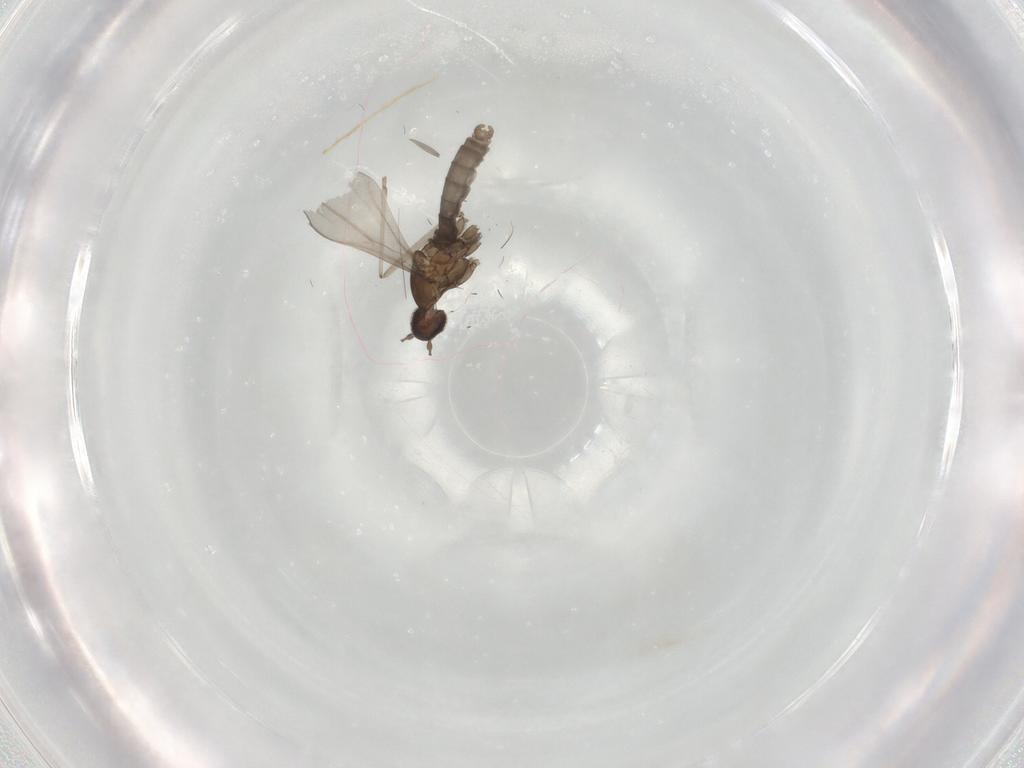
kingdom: Animalia
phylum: Arthropoda
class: Insecta
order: Diptera
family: Cecidomyiidae
